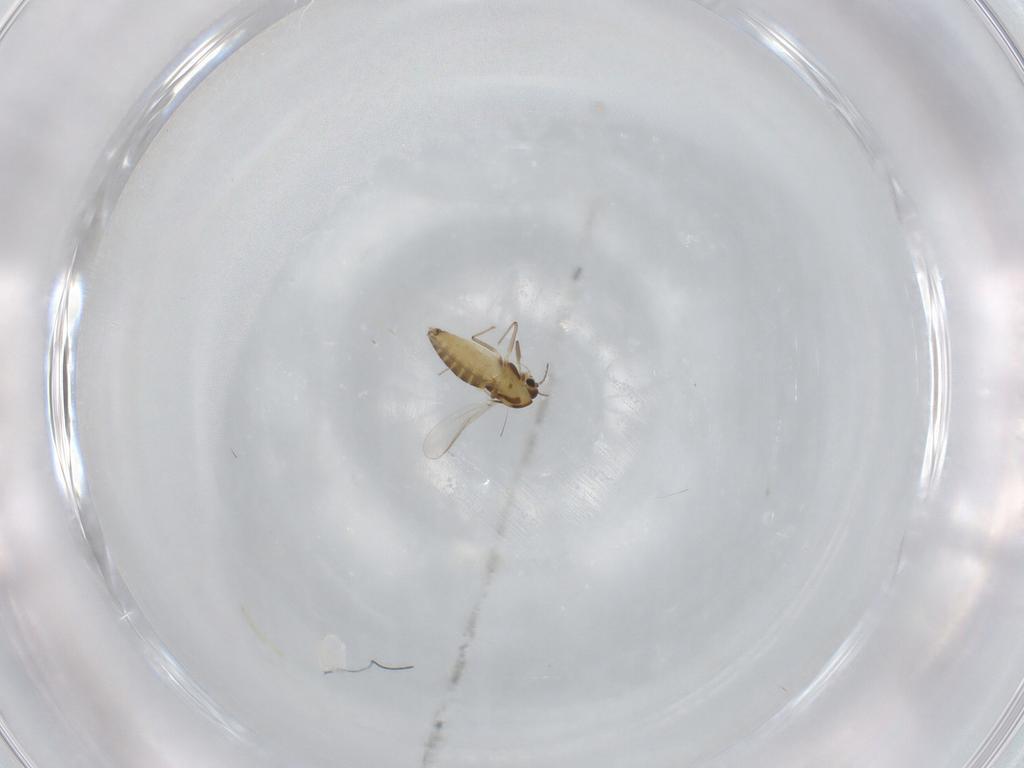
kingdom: Animalia
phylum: Arthropoda
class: Insecta
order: Diptera
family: Chironomidae
